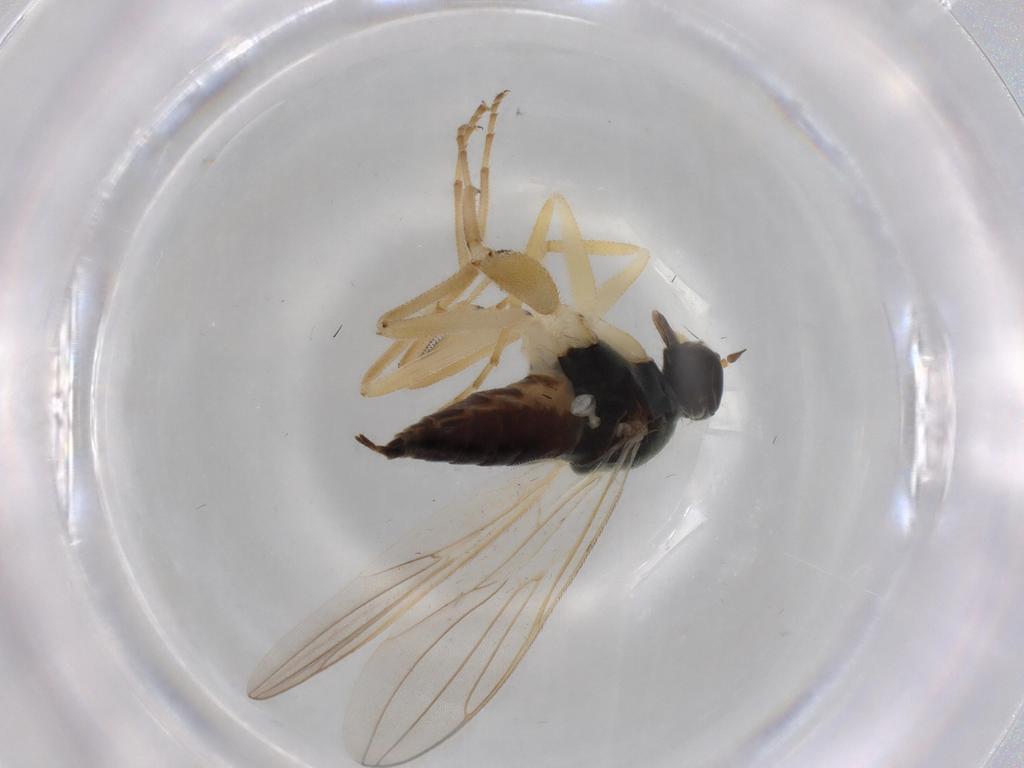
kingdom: Animalia
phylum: Arthropoda
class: Insecta
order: Diptera
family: Hybotidae
